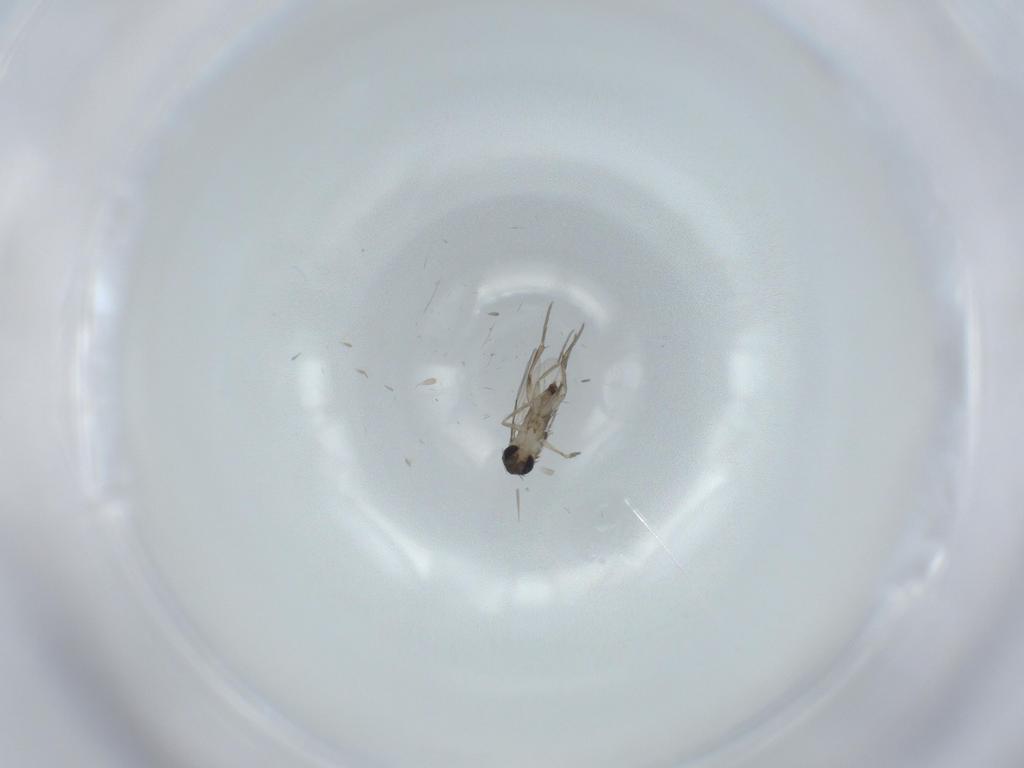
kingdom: Animalia
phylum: Arthropoda
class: Insecta
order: Diptera
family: Phoridae
